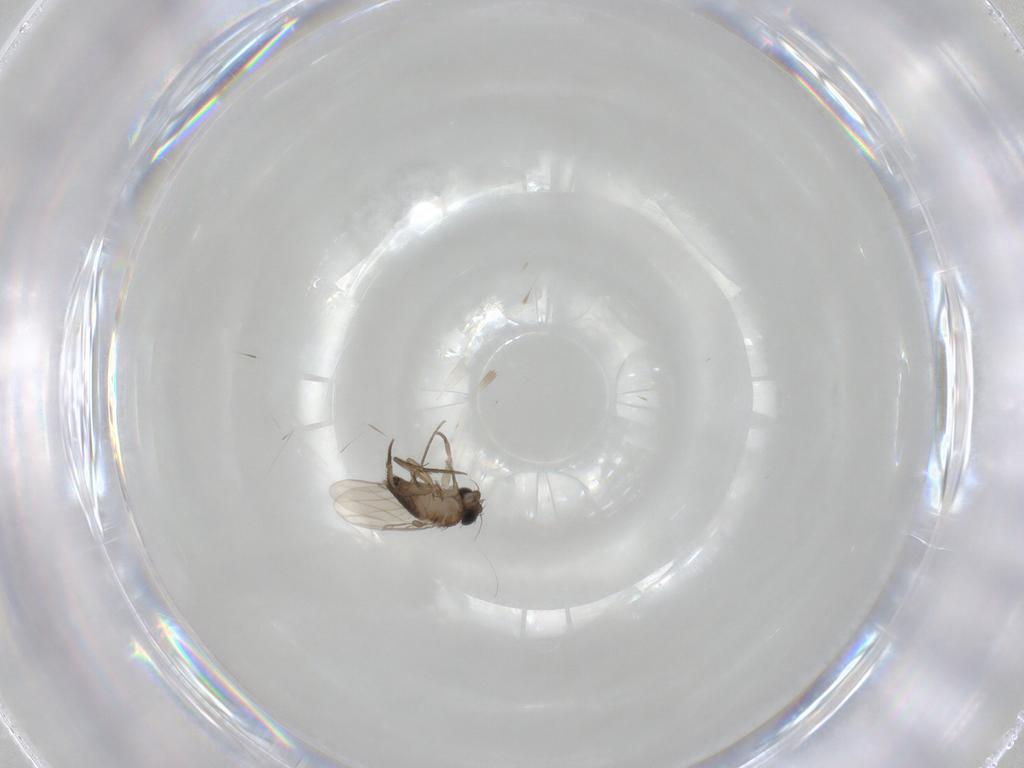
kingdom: Animalia
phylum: Arthropoda
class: Insecta
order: Diptera
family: Phoridae
